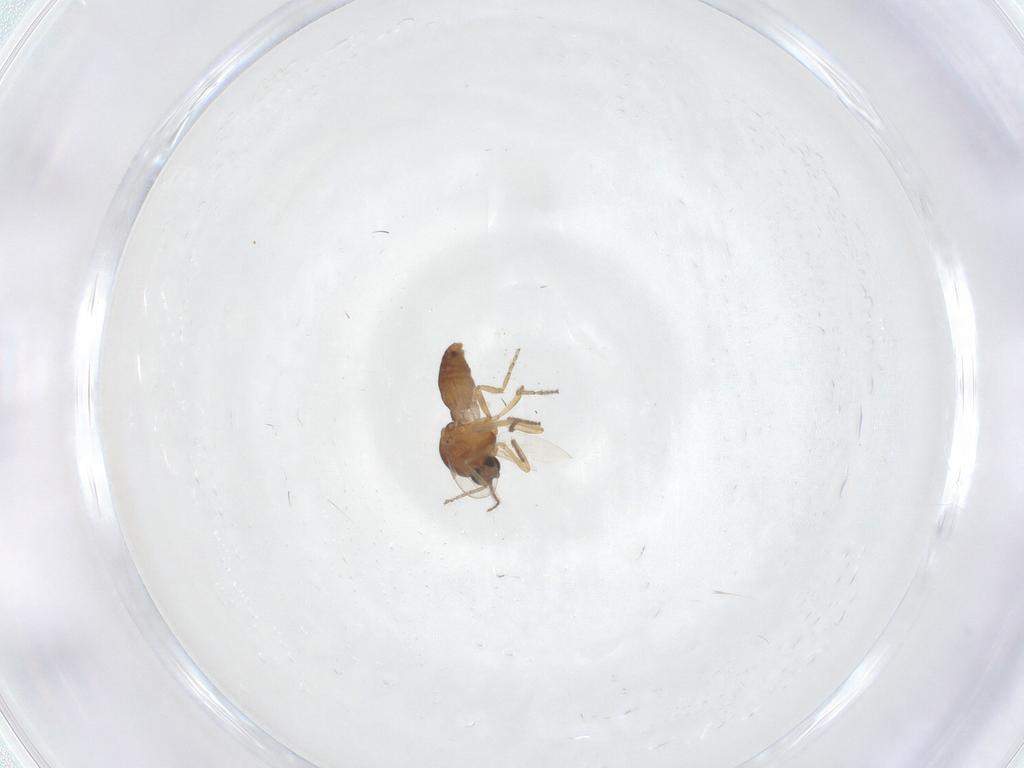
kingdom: Animalia
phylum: Arthropoda
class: Insecta
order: Diptera
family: Ceratopogonidae
